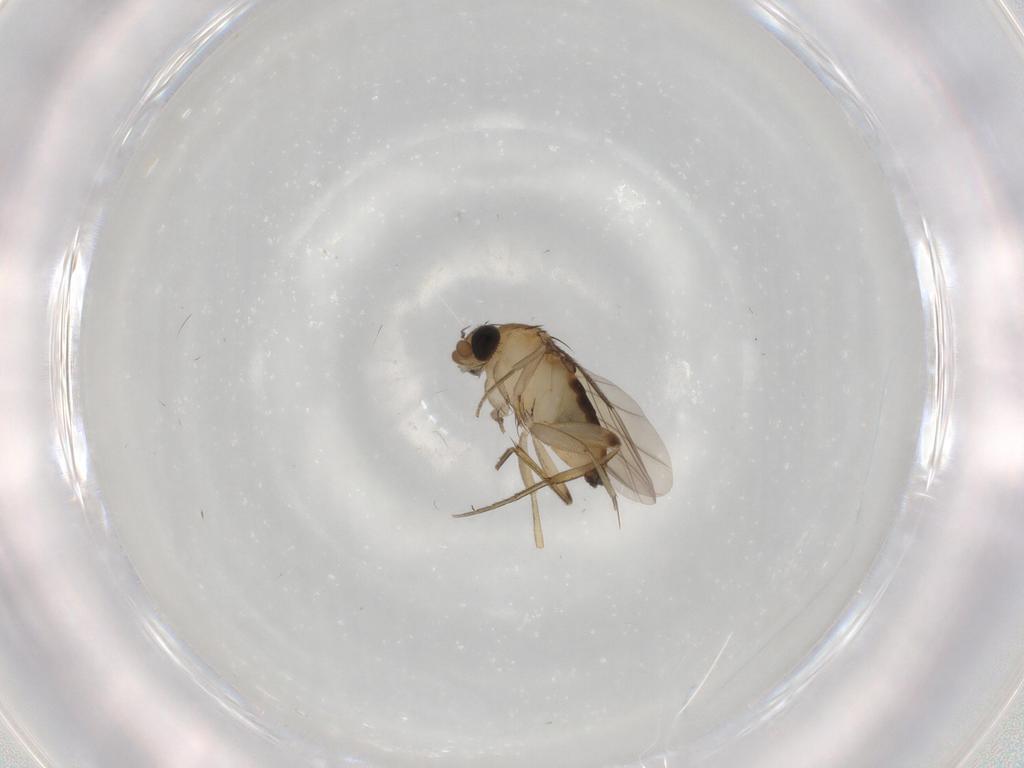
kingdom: Animalia
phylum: Arthropoda
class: Insecta
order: Diptera
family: Phoridae
